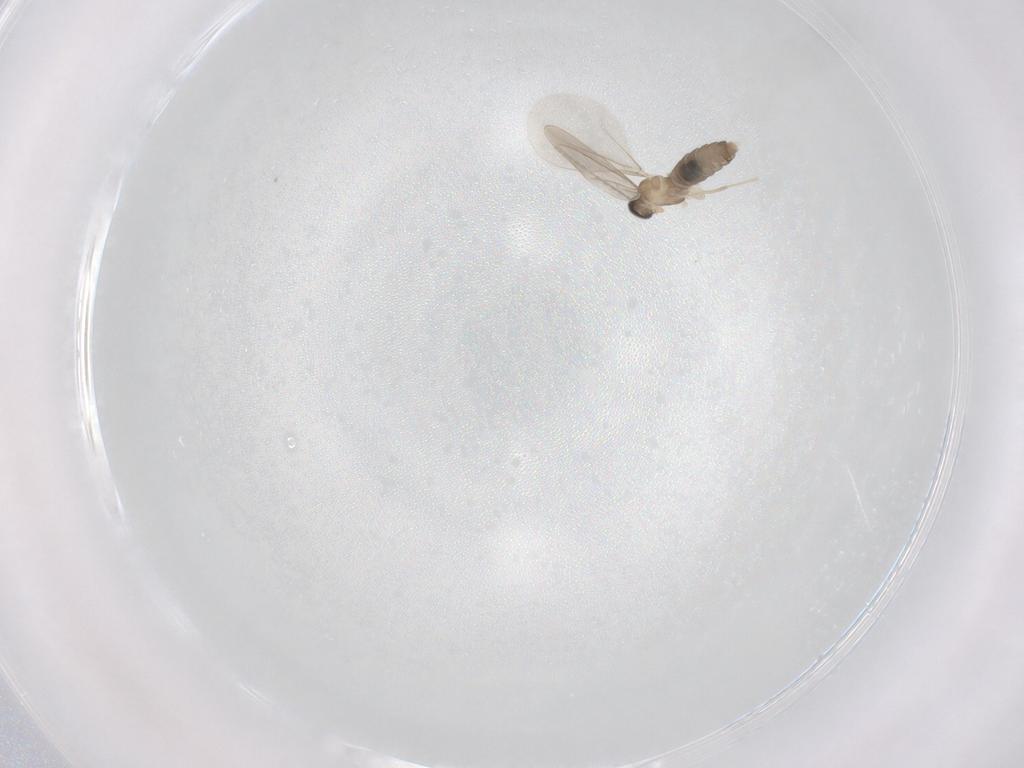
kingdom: Animalia
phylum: Arthropoda
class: Insecta
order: Diptera
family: Cecidomyiidae
